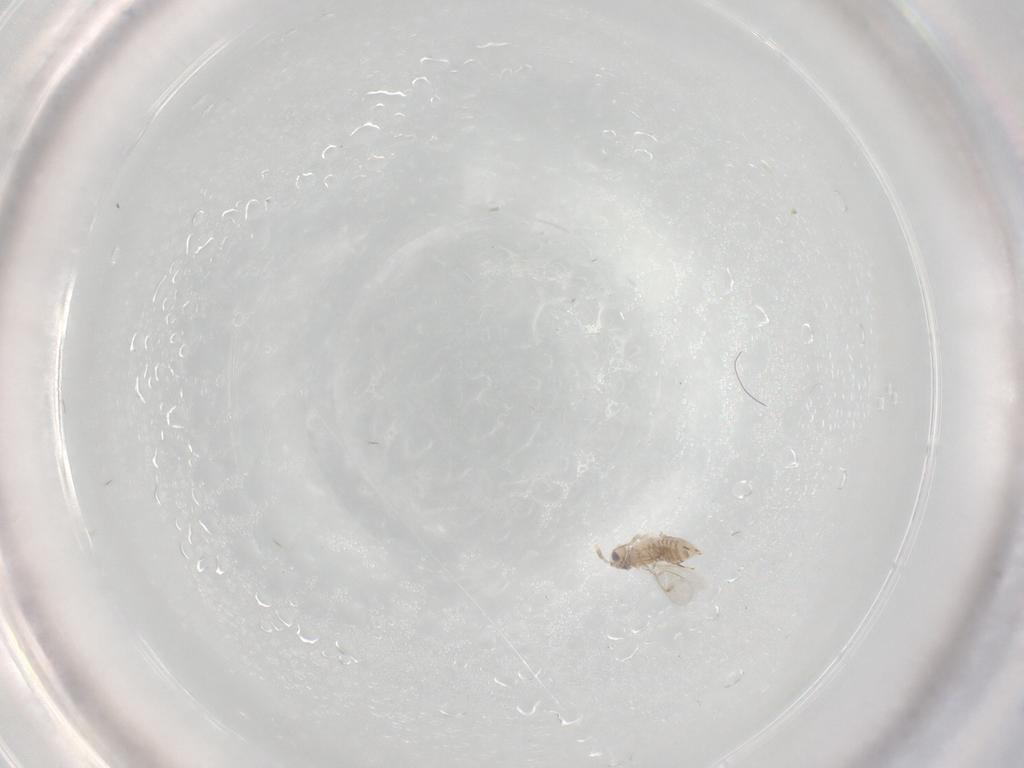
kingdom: Animalia
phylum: Arthropoda
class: Insecta
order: Hymenoptera
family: Aphelinidae
